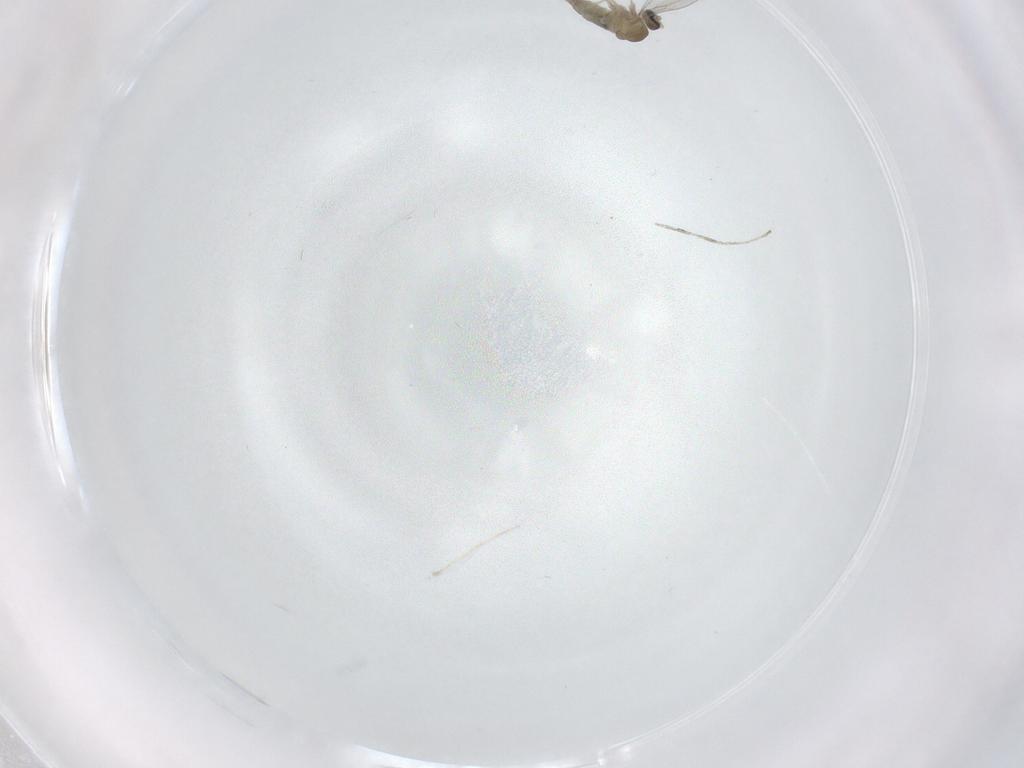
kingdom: Animalia
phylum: Arthropoda
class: Insecta
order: Diptera
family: Cecidomyiidae
